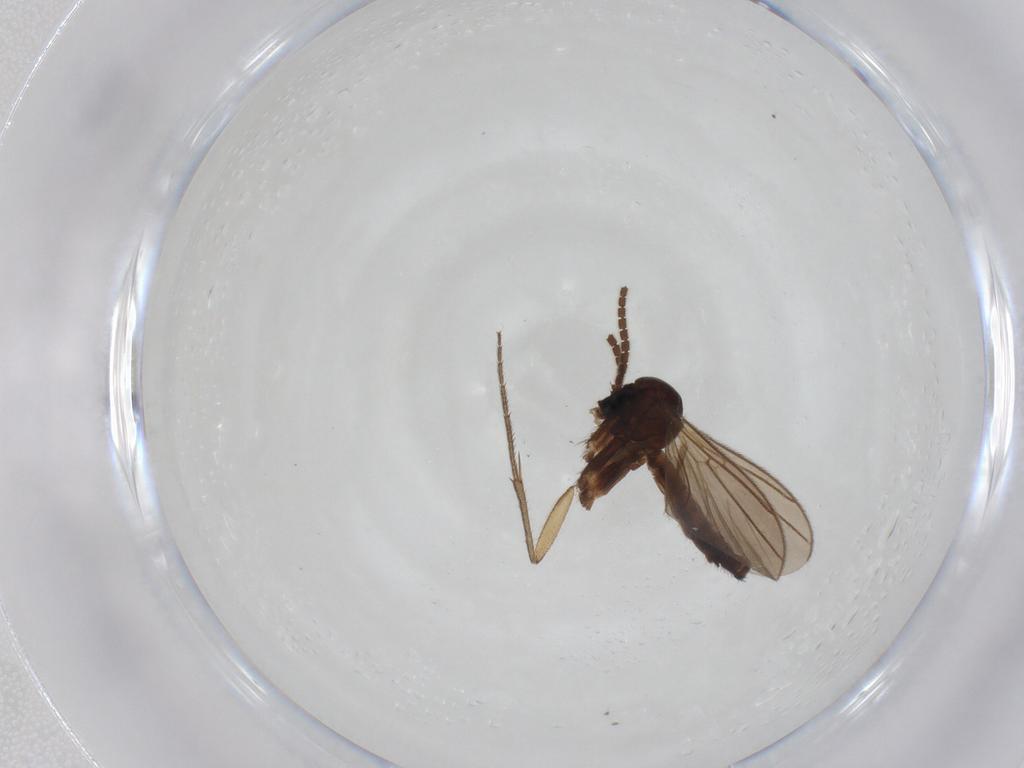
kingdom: Animalia
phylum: Arthropoda
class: Insecta
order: Diptera
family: Mycetophilidae
